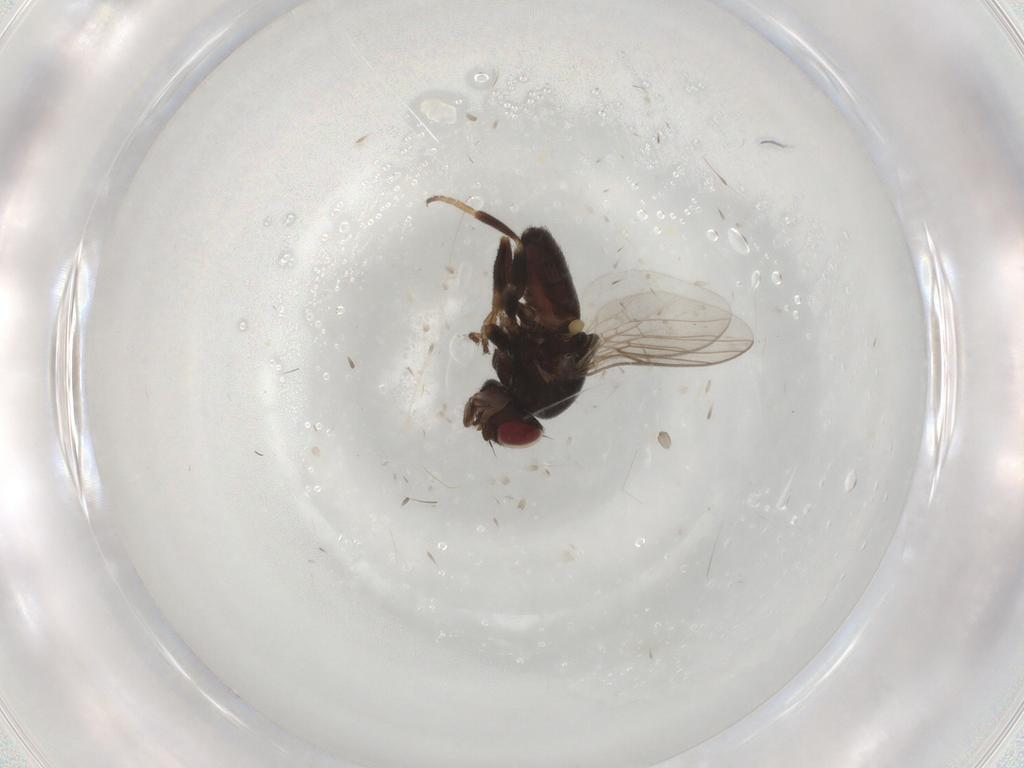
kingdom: Animalia
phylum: Arthropoda
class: Insecta
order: Diptera
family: Chloropidae
